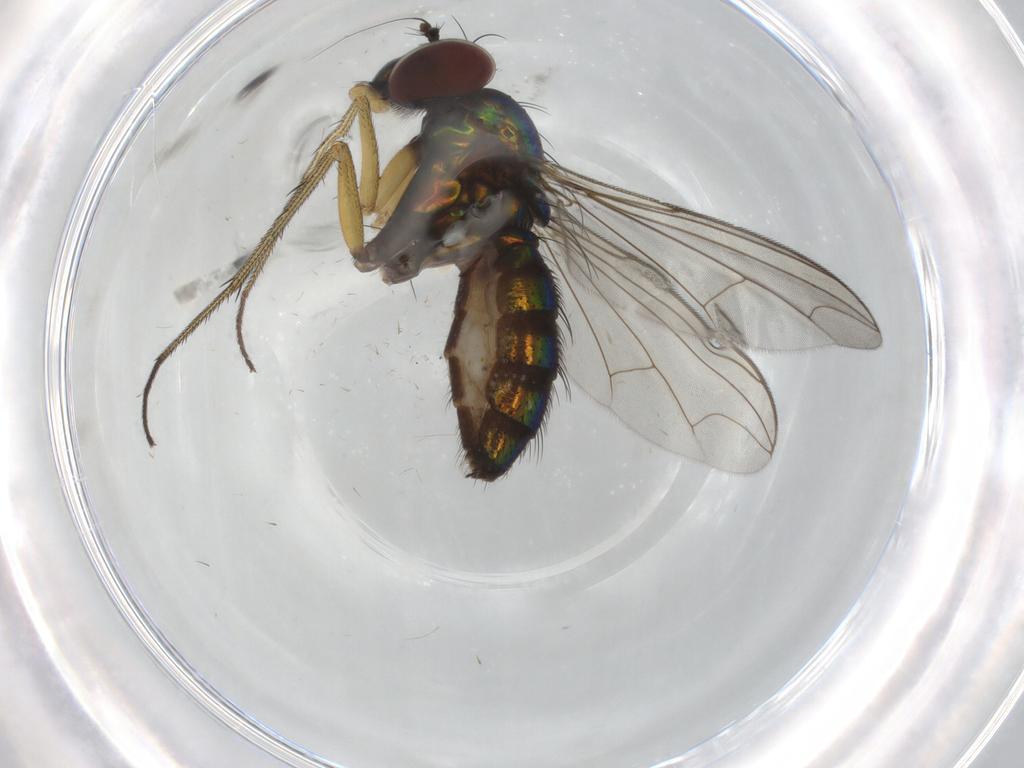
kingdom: Animalia
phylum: Arthropoda
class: Insecta
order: Diptera
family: Dolichopodidae
